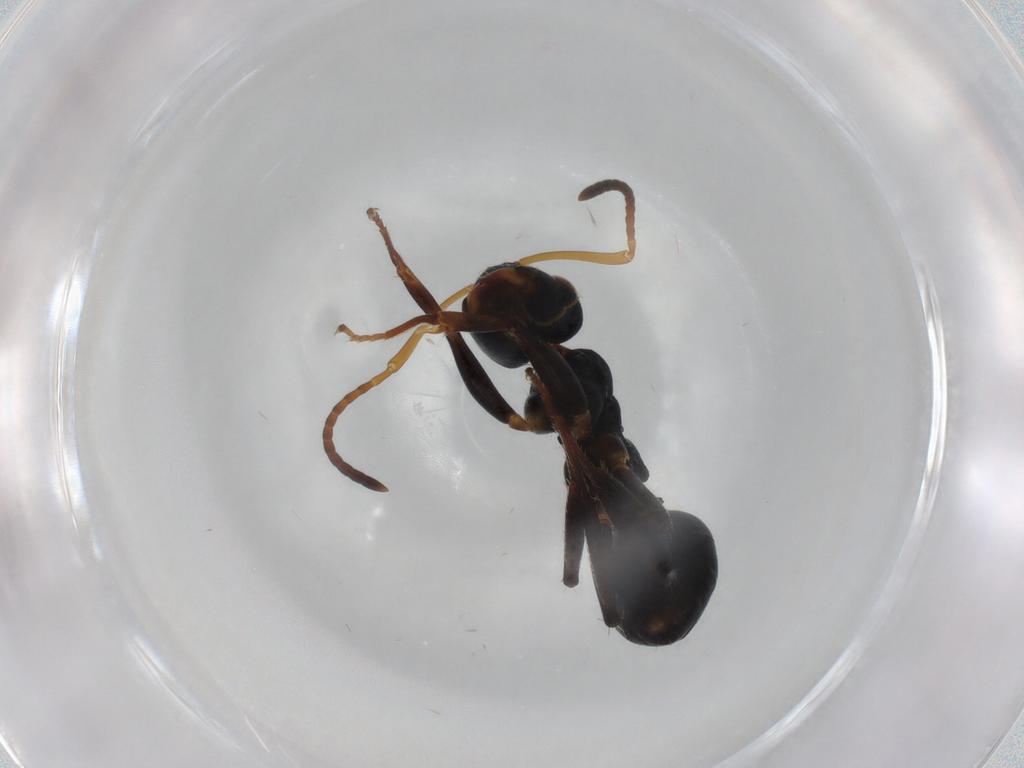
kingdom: Animalia
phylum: Arthropoda
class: Insecta
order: Hymenoptera
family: Formicidae
